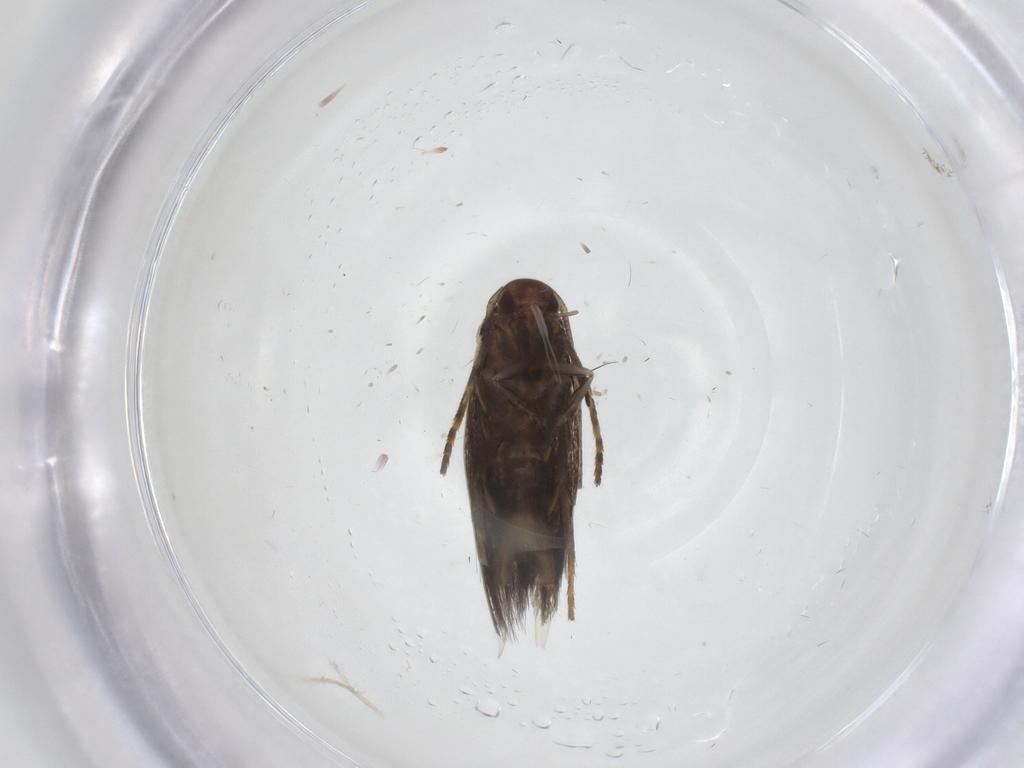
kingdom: Animalia
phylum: Arthropoda
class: Insecta
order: Lepidoptera
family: Elachistidae
